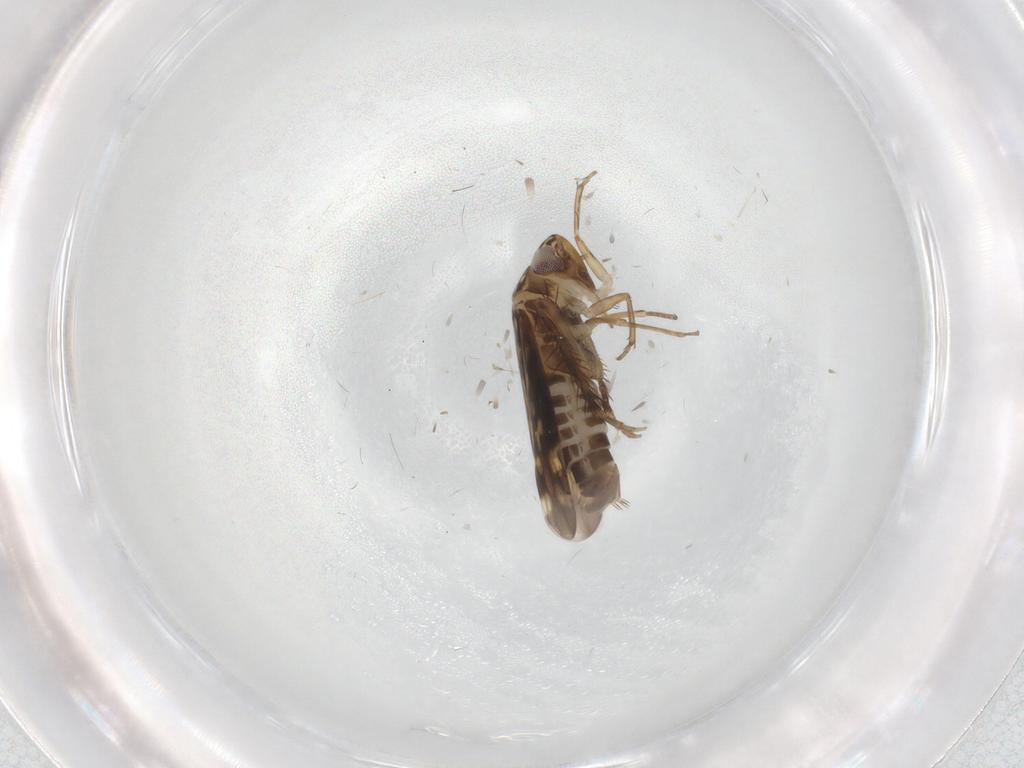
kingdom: Animalia
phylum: Arthropoda
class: Insecta
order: Hemiptera
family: Cicadellidae
